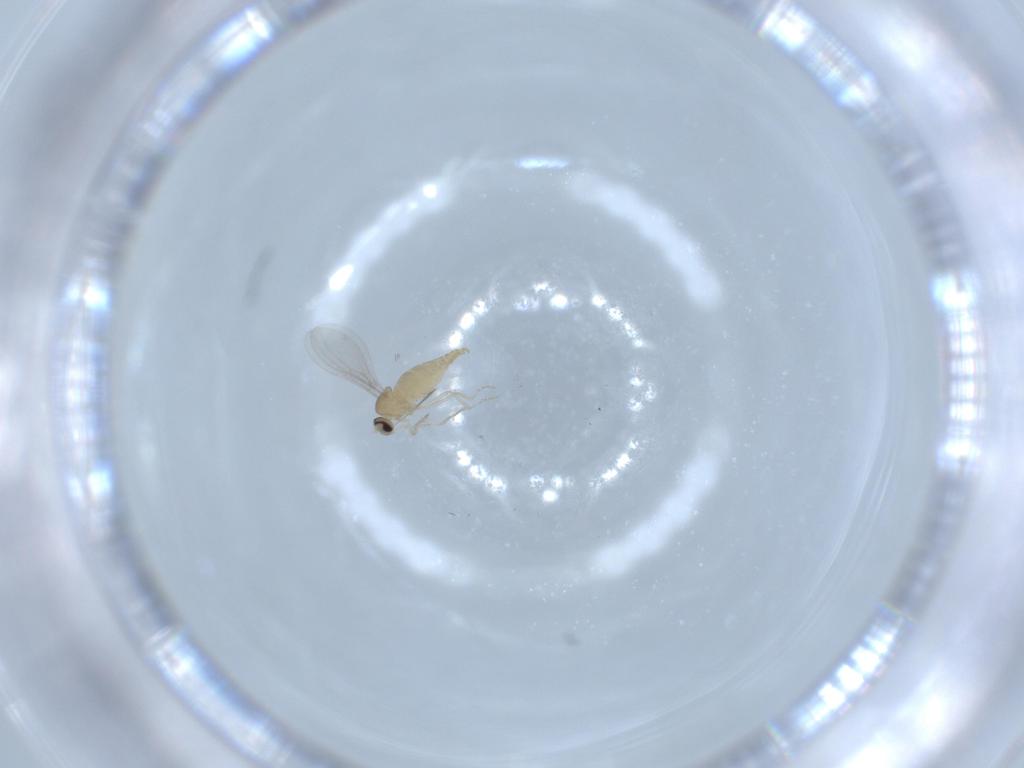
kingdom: Animalia
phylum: Arthropoda
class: Insecta
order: Diptera
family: Cecidomyiidae
